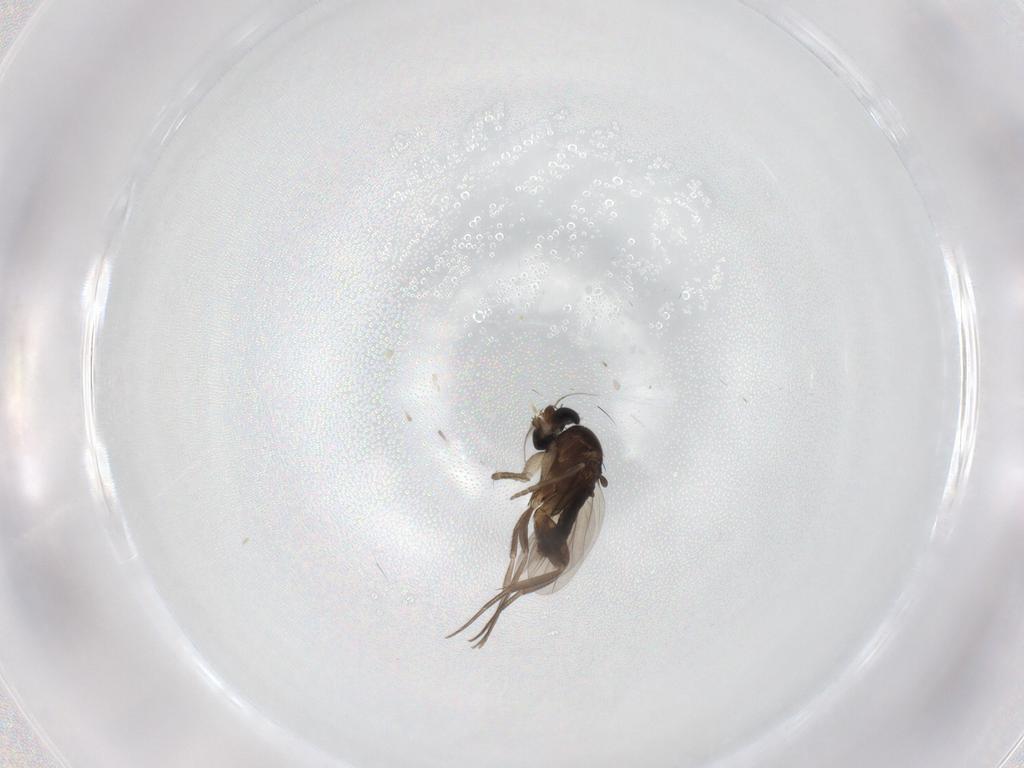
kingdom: Animalia
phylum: Arthropoda
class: Insecta
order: Diptera
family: Phoridae
